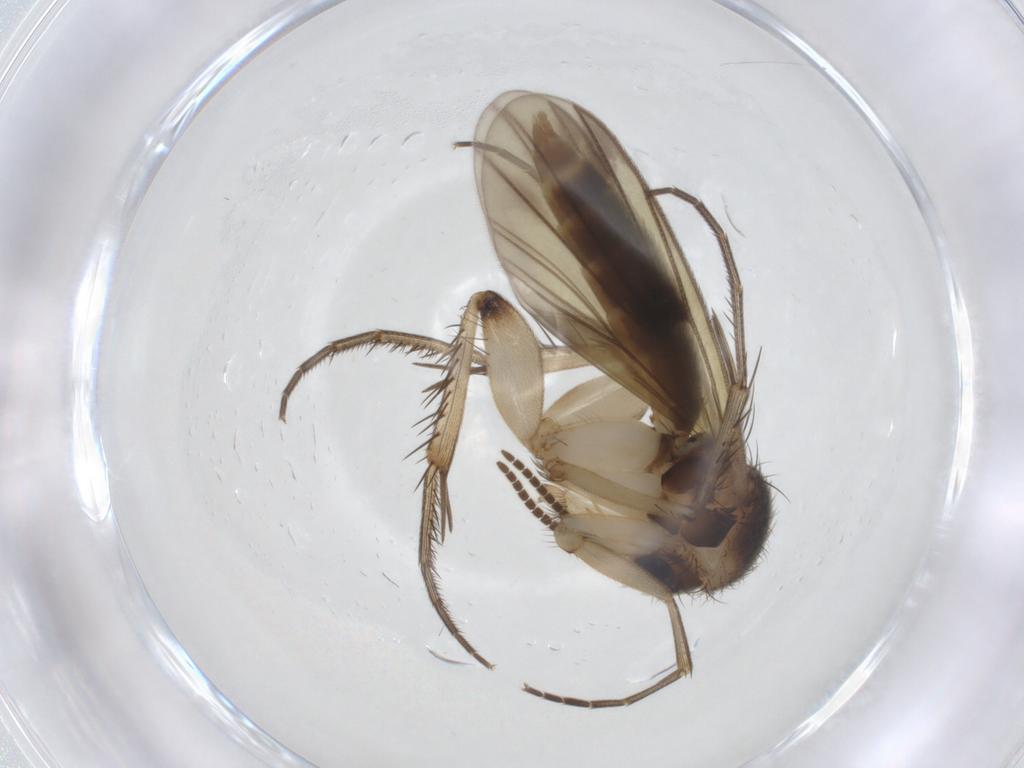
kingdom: Animalia
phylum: Arthropoda
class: Insecta
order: Diptera
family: Mycetophilidae
